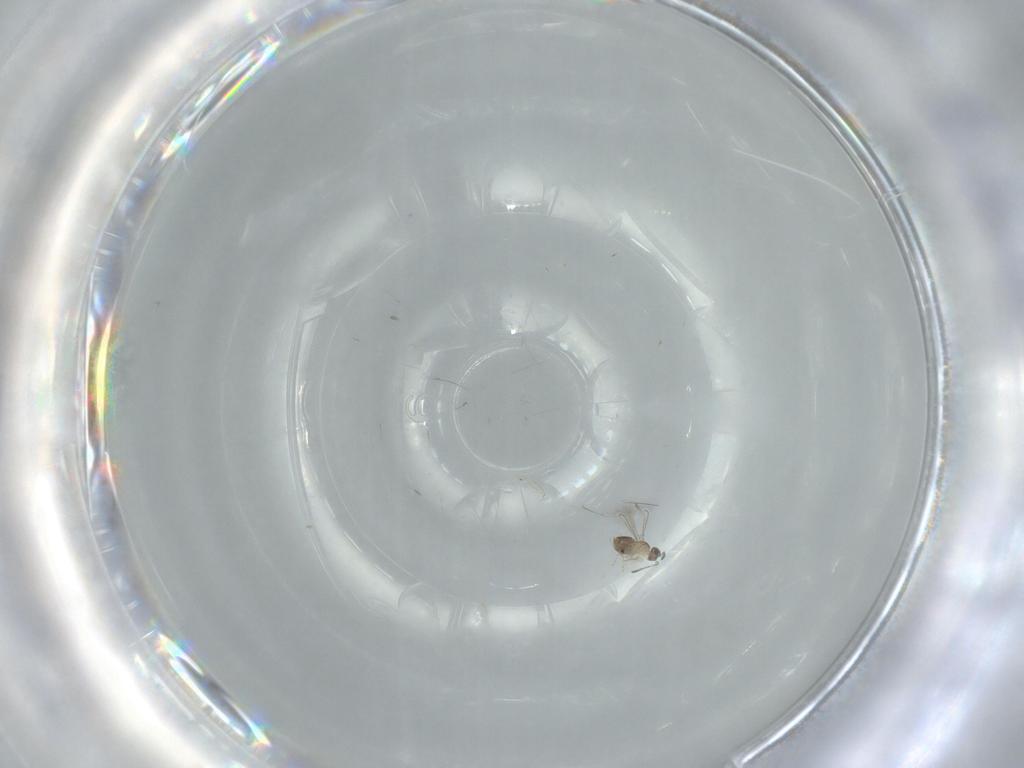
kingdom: Animalia
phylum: Arthropoda
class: Insecta
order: Hymenoptera
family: Mymaridae
